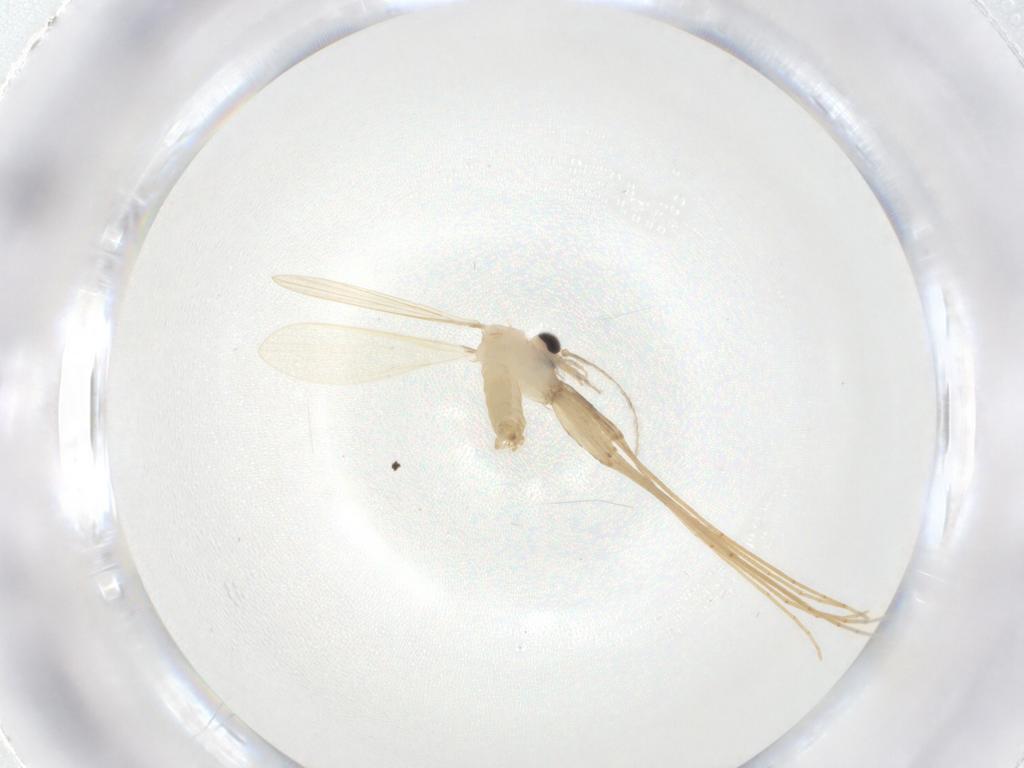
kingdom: Animalia
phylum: Arthropoda
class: Insecta
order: Diptera
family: Psychodidae
